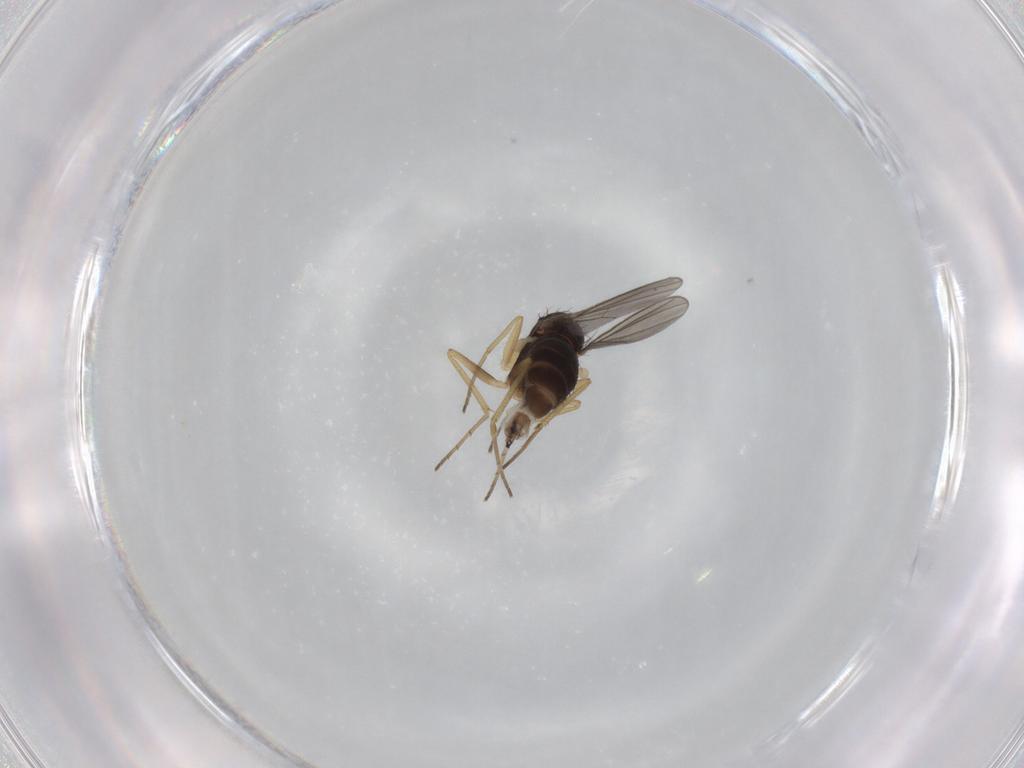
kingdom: Animalia
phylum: Arthropoda
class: Insecta
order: Diptera
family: Dolichopodidae
